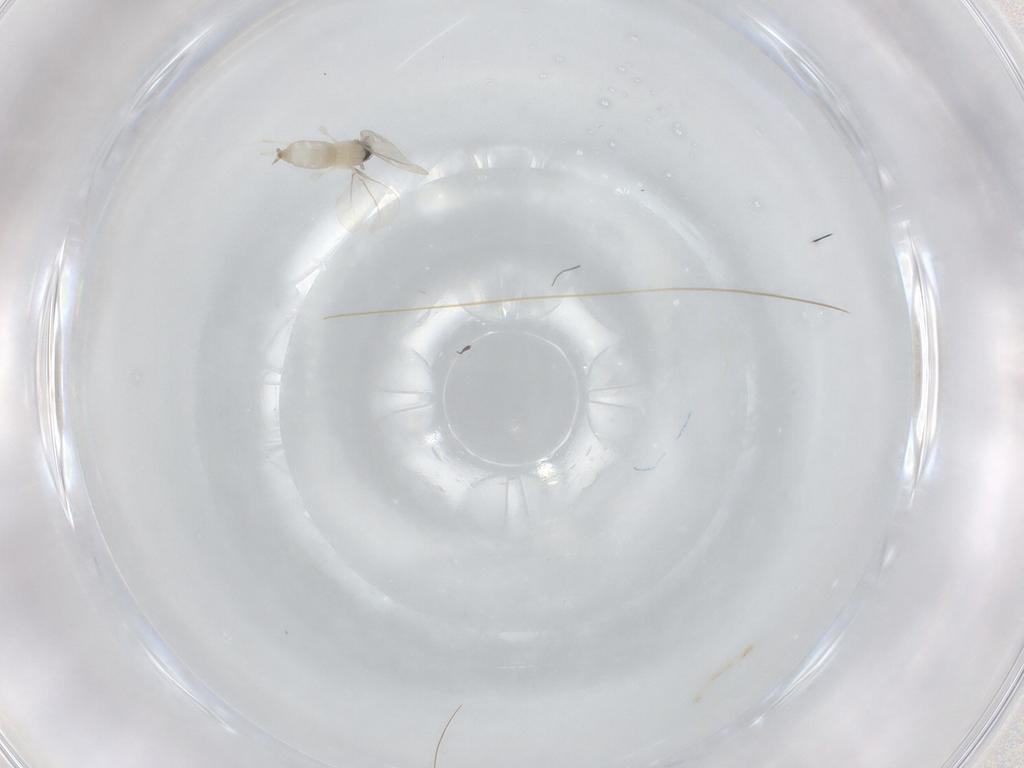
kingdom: Animalia
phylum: Arthropoda
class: Insecta
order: Diptera
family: Cecidomyiidae
